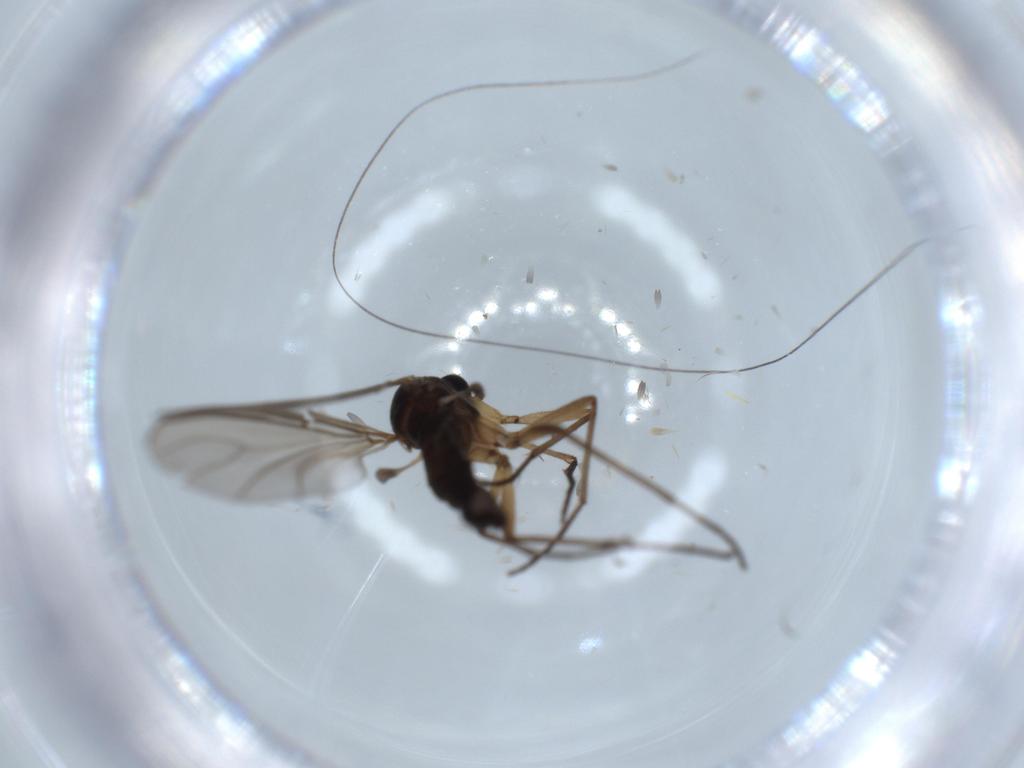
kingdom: Animalia
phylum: Arthropoda
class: Insecta
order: Diptera
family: Sciaridae
